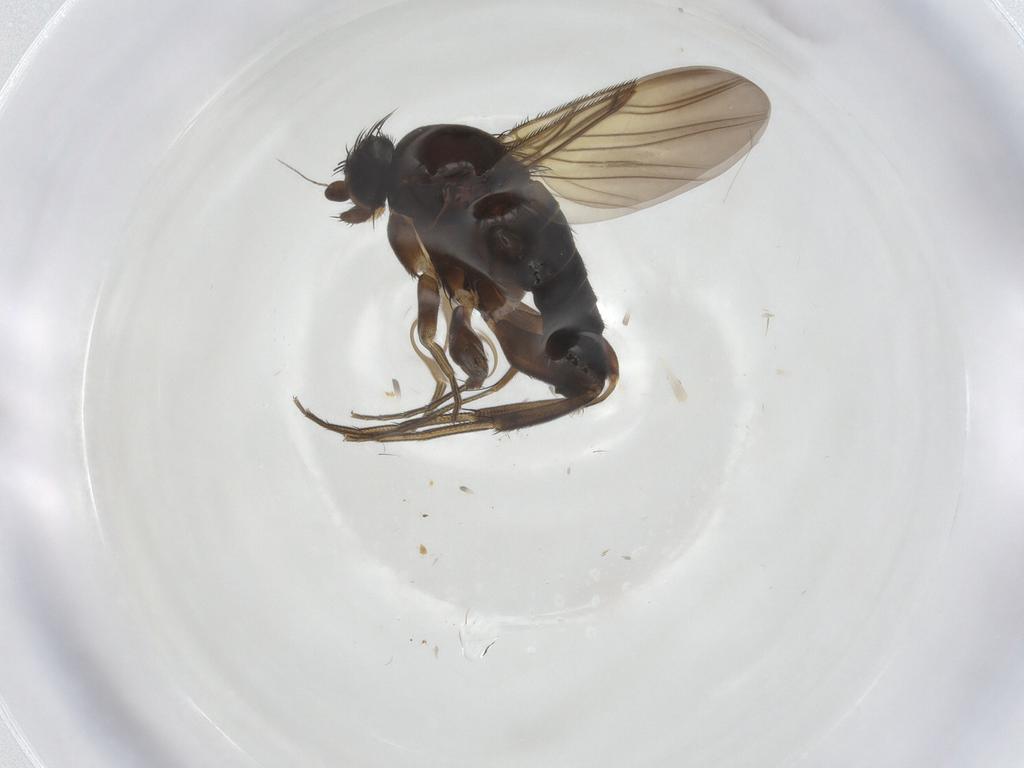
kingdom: Animalia
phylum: Arthropoda
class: Insecta
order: Diptera
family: Phoridae
